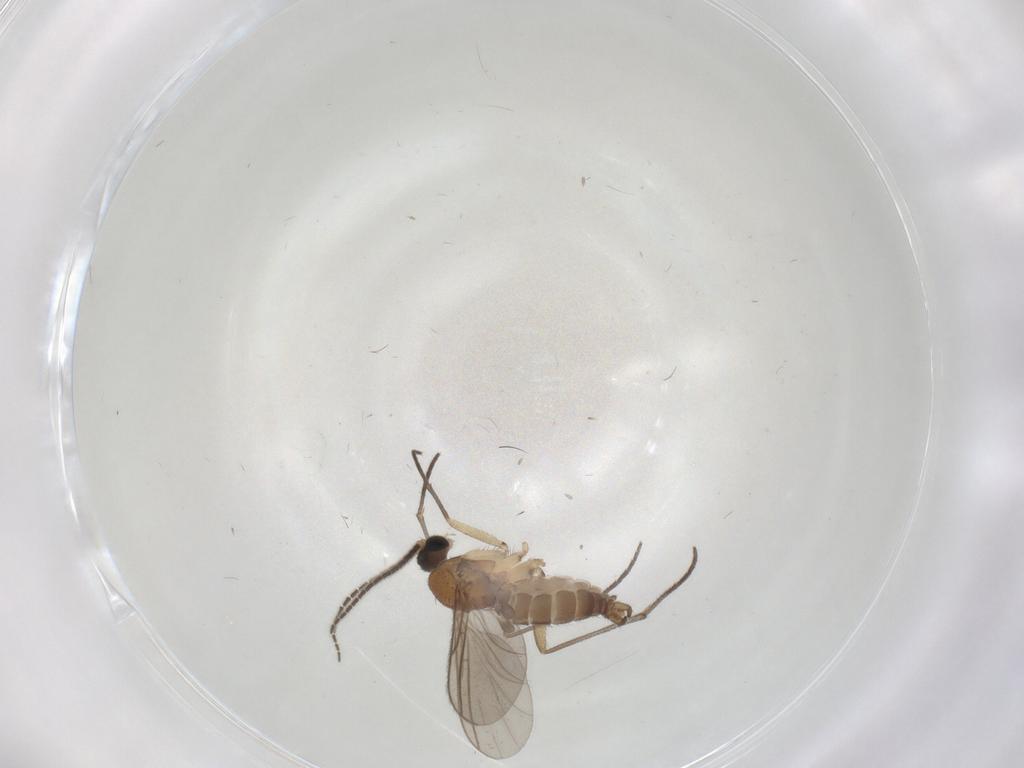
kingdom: Animalia
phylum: Arthropoda
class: Insecta
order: Diptera
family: Sciaridae
